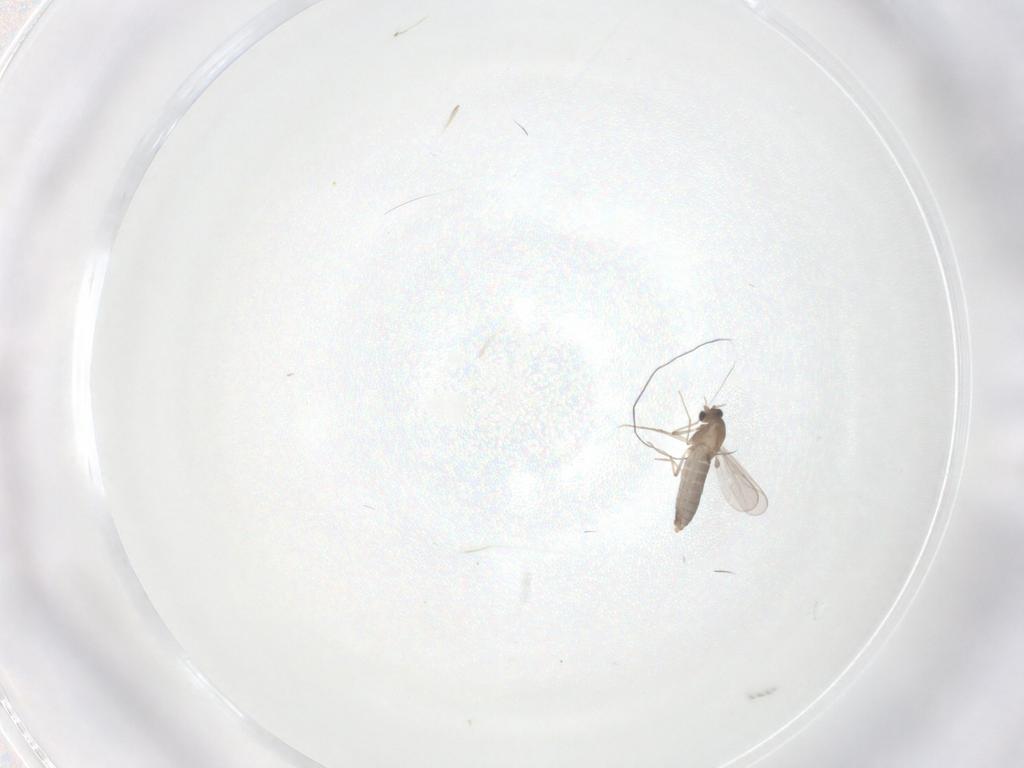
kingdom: Animalia
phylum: Arthropoda
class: Insecta
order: Diptera
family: Chironomidae
